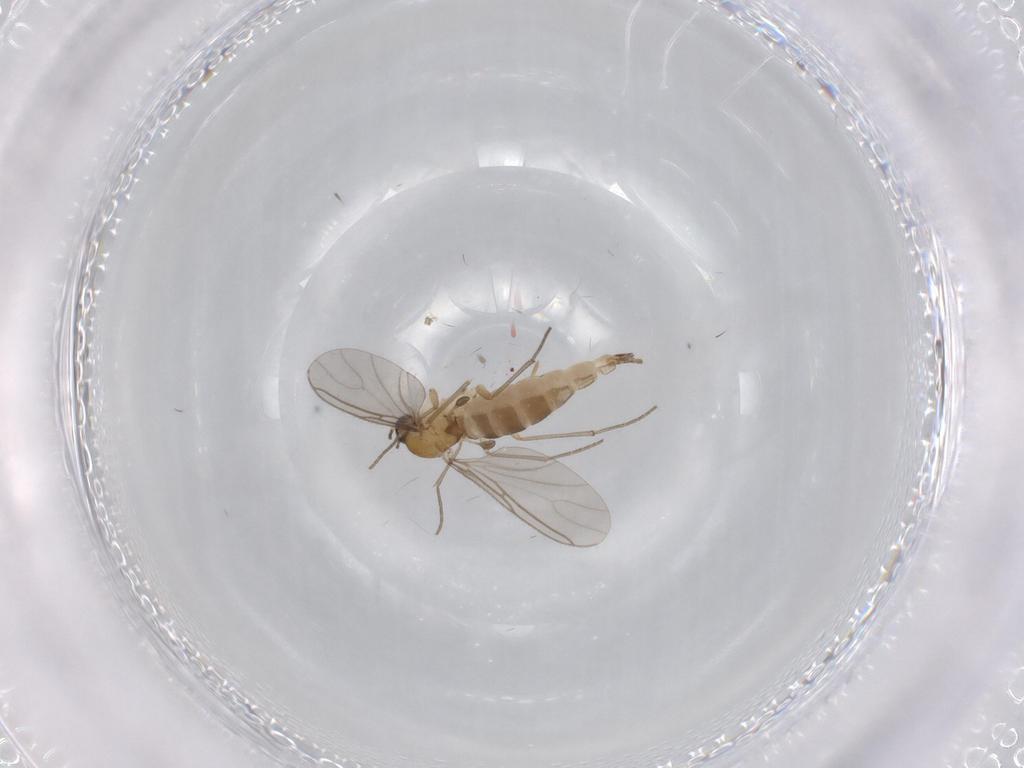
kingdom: Animalia
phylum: Arthropoda
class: Insecta
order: Diptera
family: Sciaridae
